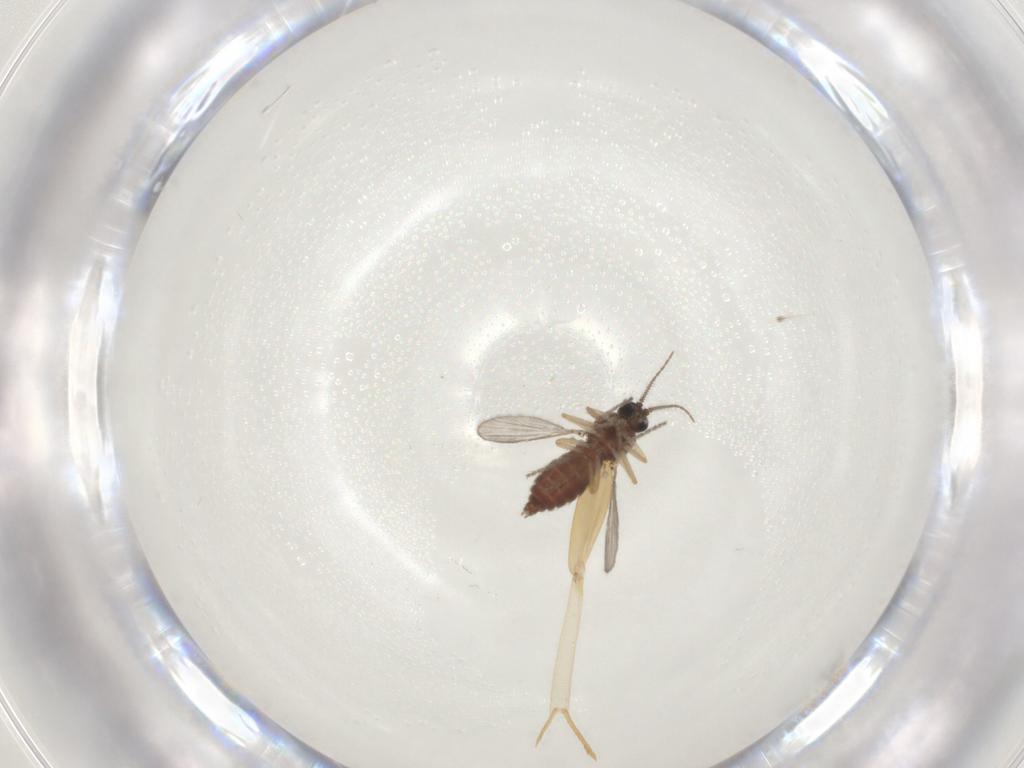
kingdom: Animalia
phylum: Arthropoda
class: Insecta
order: Diptera
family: Ceratopogonidae
